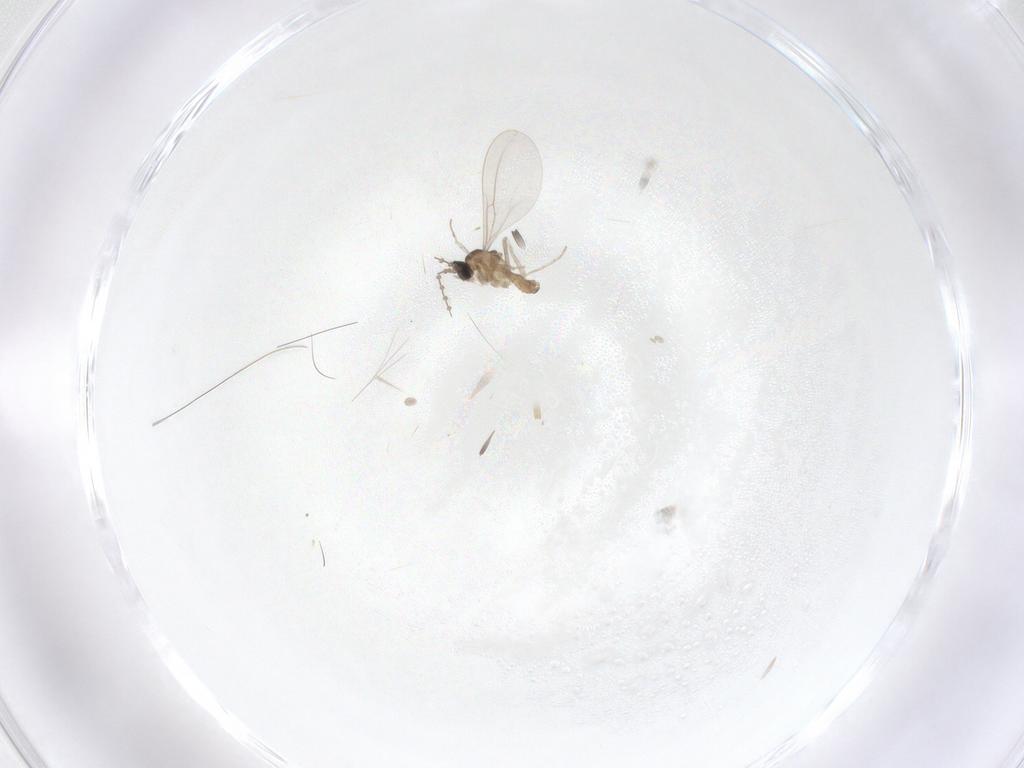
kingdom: Animalia
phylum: Arthropoda
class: Insecta
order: Diptera
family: Cecidomyiidae
